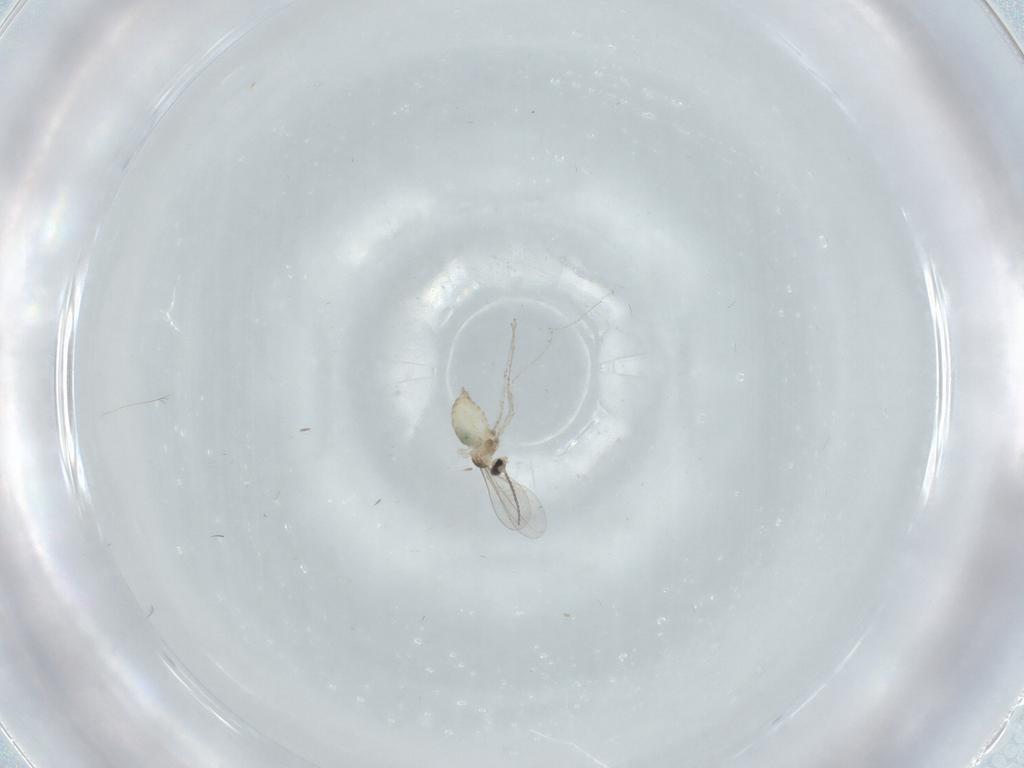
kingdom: Animalia
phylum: Arthropoda
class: Insecta
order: Diptera
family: Cecidomyiidae
